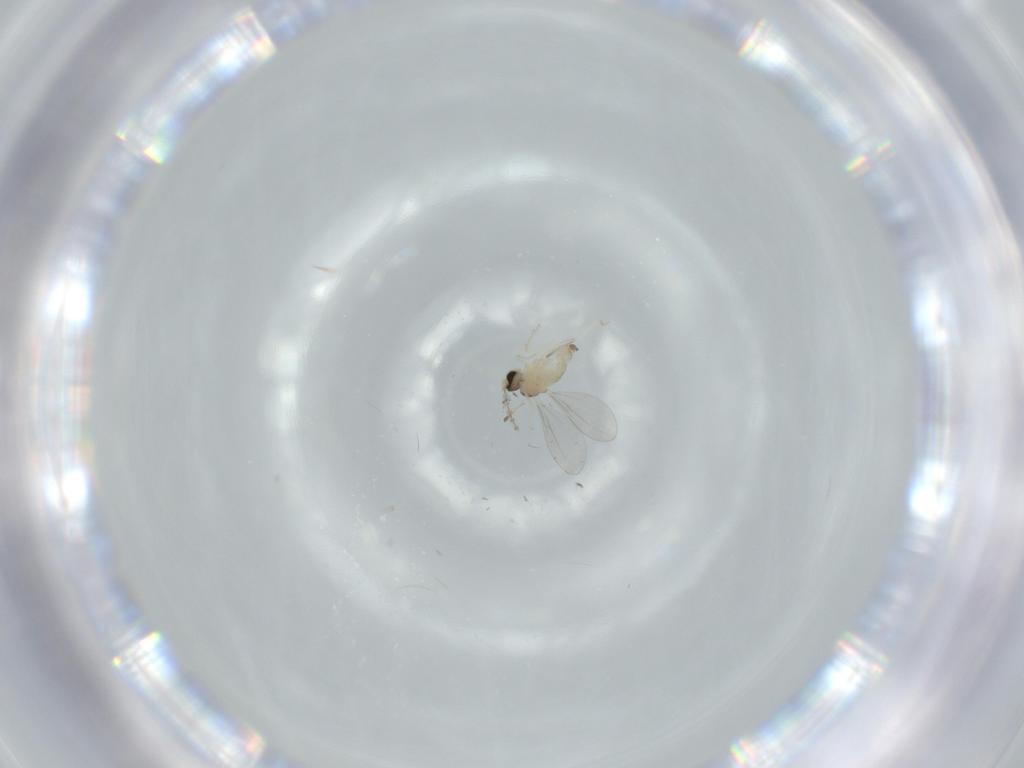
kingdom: Animalia
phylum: Arthropoda
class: Insecta
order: Diptera
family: Cecidomyiidae
